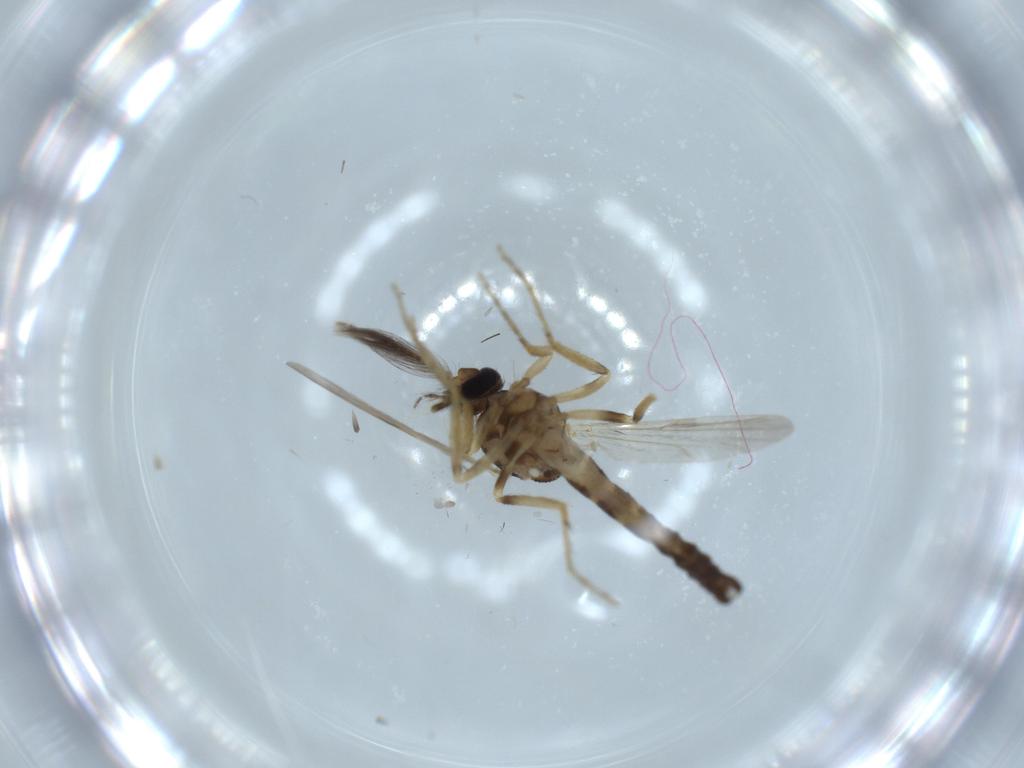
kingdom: Animalia
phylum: Arthropoda
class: Insecta
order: Diptera
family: Ceratopogonidae
